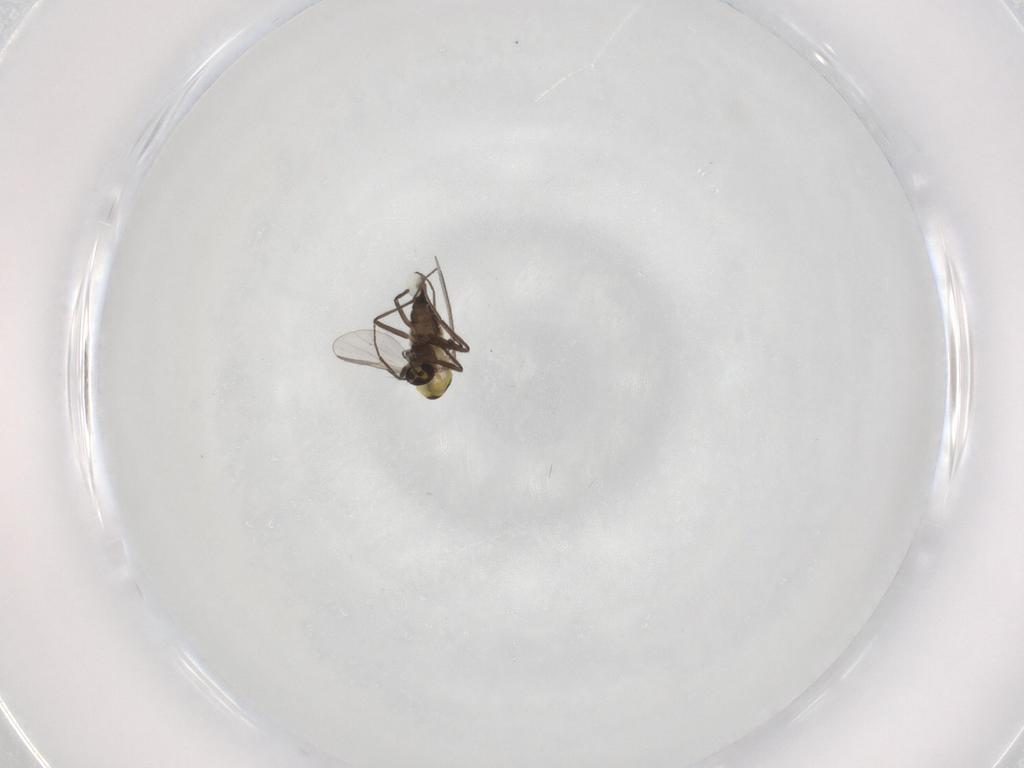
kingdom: Animalia
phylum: Arthropoda
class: Insecta
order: Diptera
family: Sciaridae
